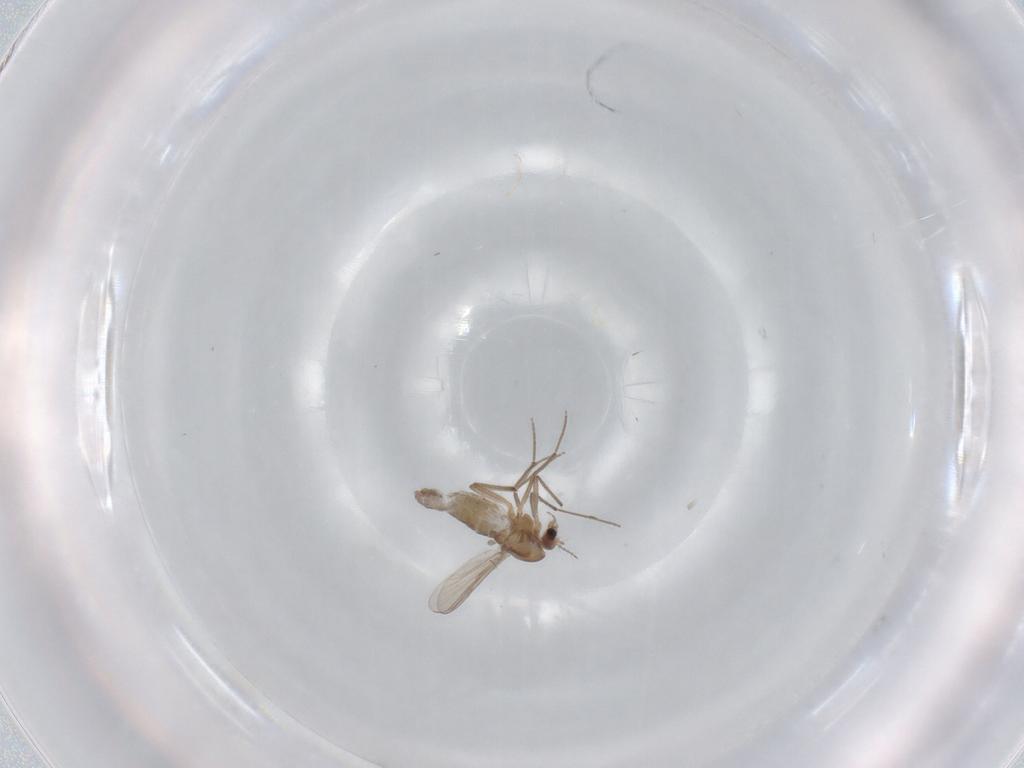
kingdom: Animalia
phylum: Arthropoda
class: Insecta
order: Diptera
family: Chironomidae
